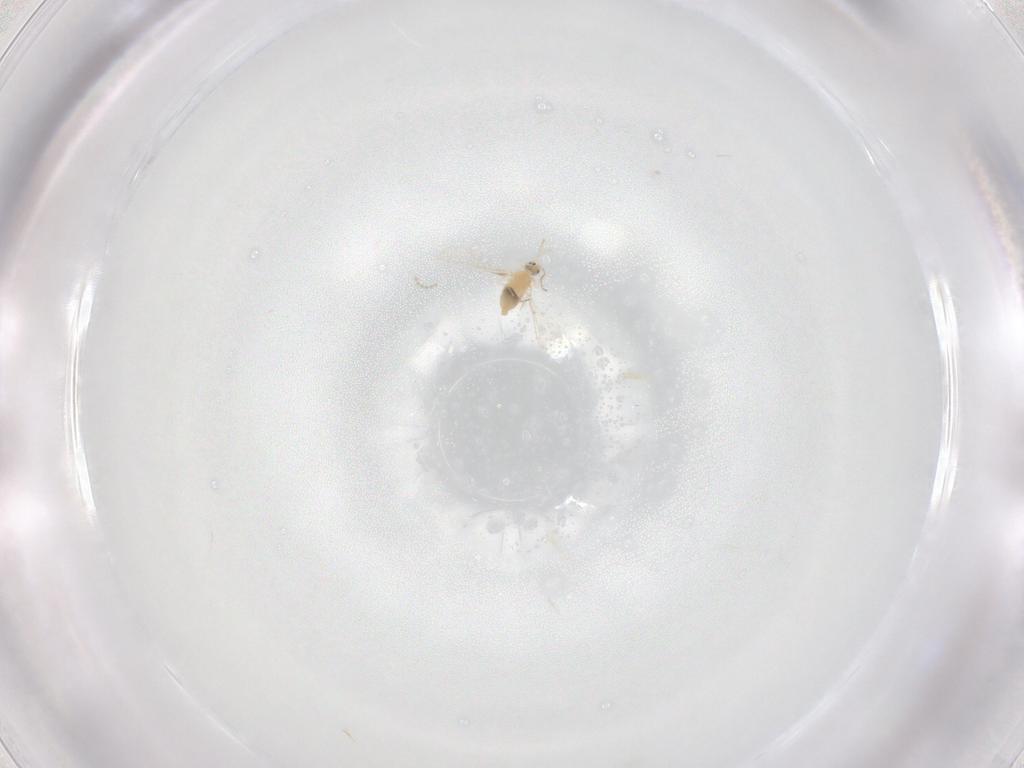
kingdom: Animalia
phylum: Arthropoda
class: Insecta
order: Diptera
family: Cecidomyiidae
